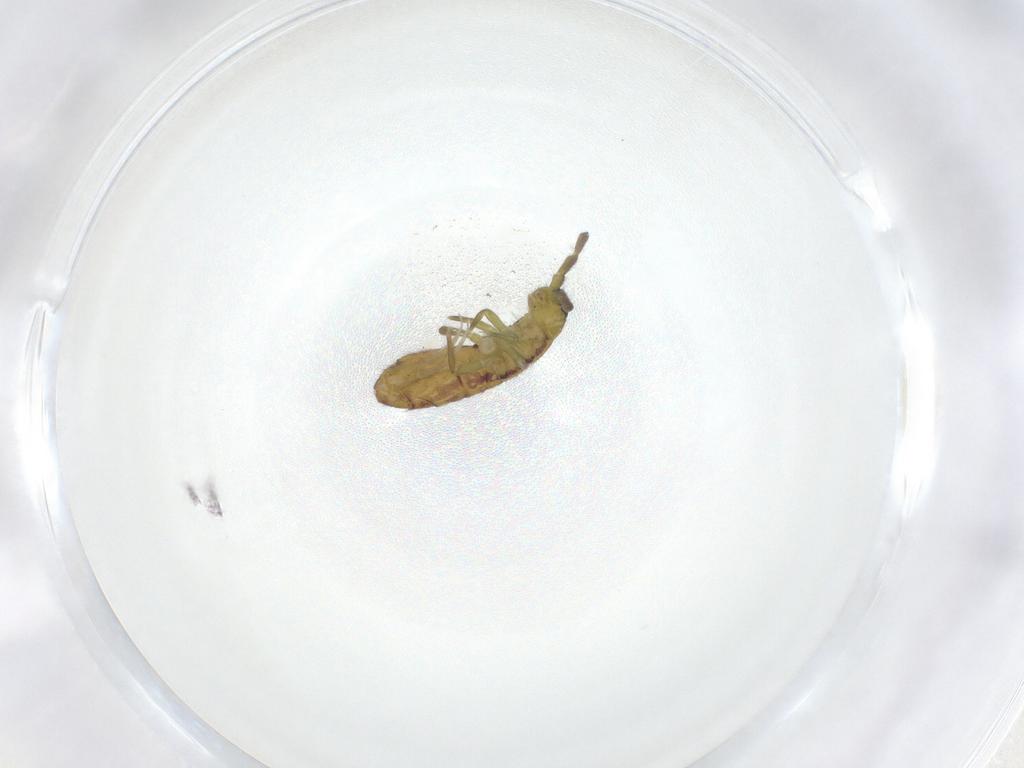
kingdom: Animalia
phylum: Arthropoda
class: Collembola
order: Entomobryomorpha
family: Isotomidae
